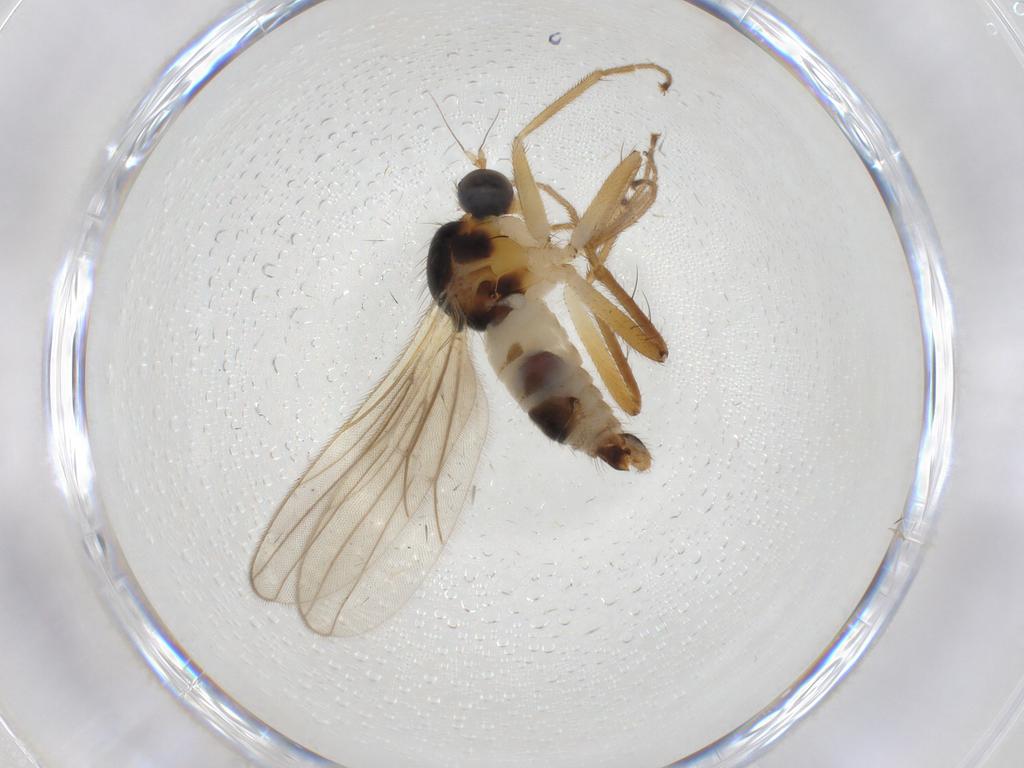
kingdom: Animalia
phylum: Arthropoda
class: Insecta
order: Diptera
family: Hybotidae
